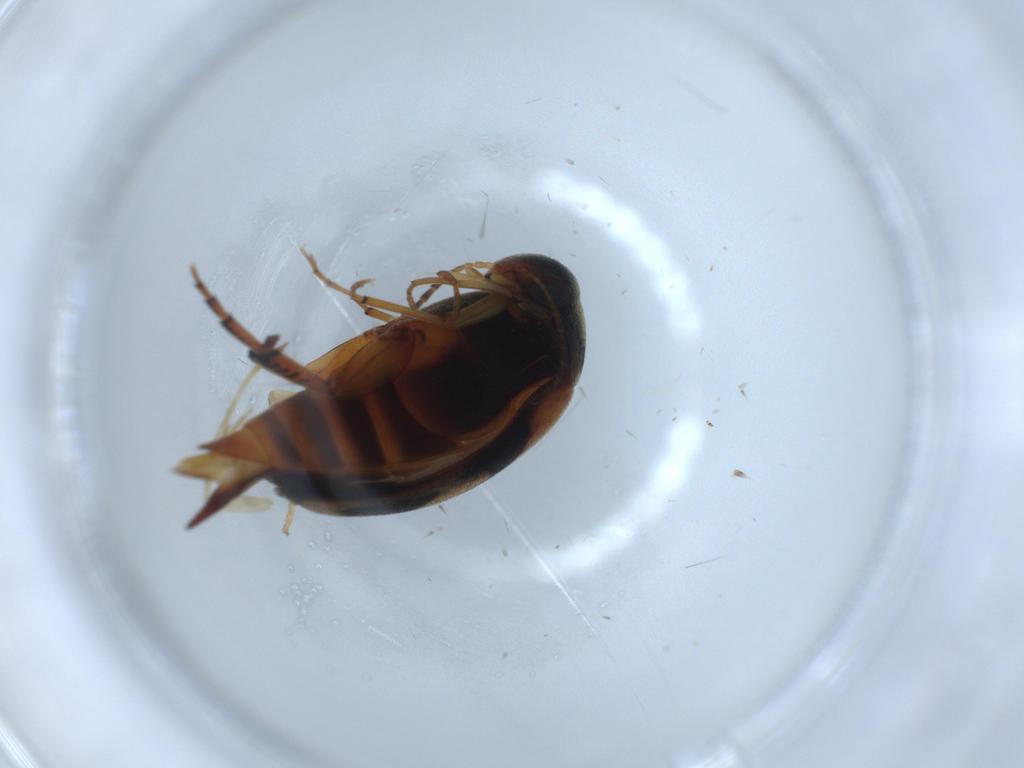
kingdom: Animalia
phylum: Arthropoda
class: Insecta
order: Coleoptera
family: Mordellidae
